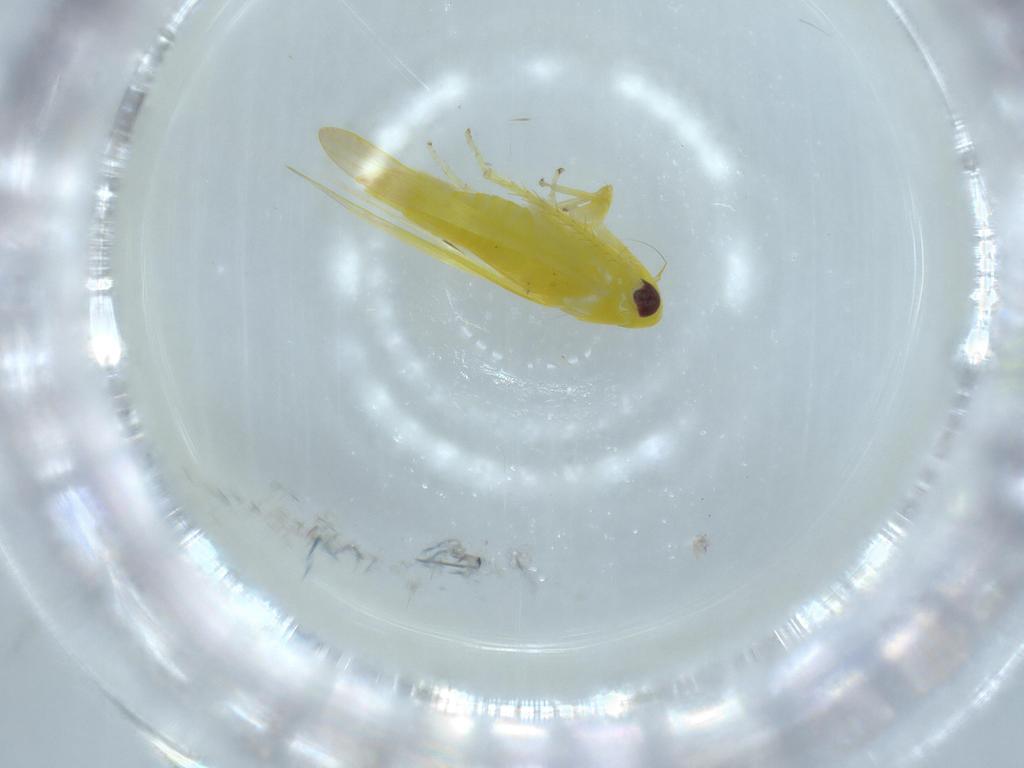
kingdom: Animalia
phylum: Arthropoda
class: Insecta
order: Hemiptera
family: Cicadellidae
